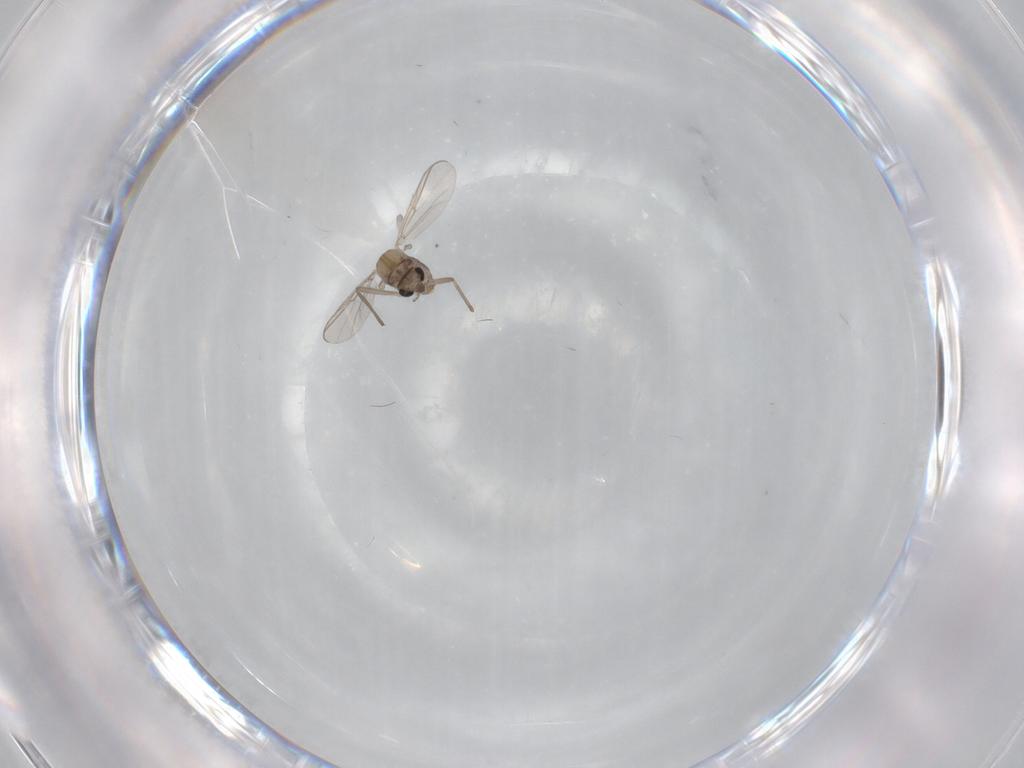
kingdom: Animalia
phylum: Arthropoda
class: Insecta
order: Diptera
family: Chironomidae
